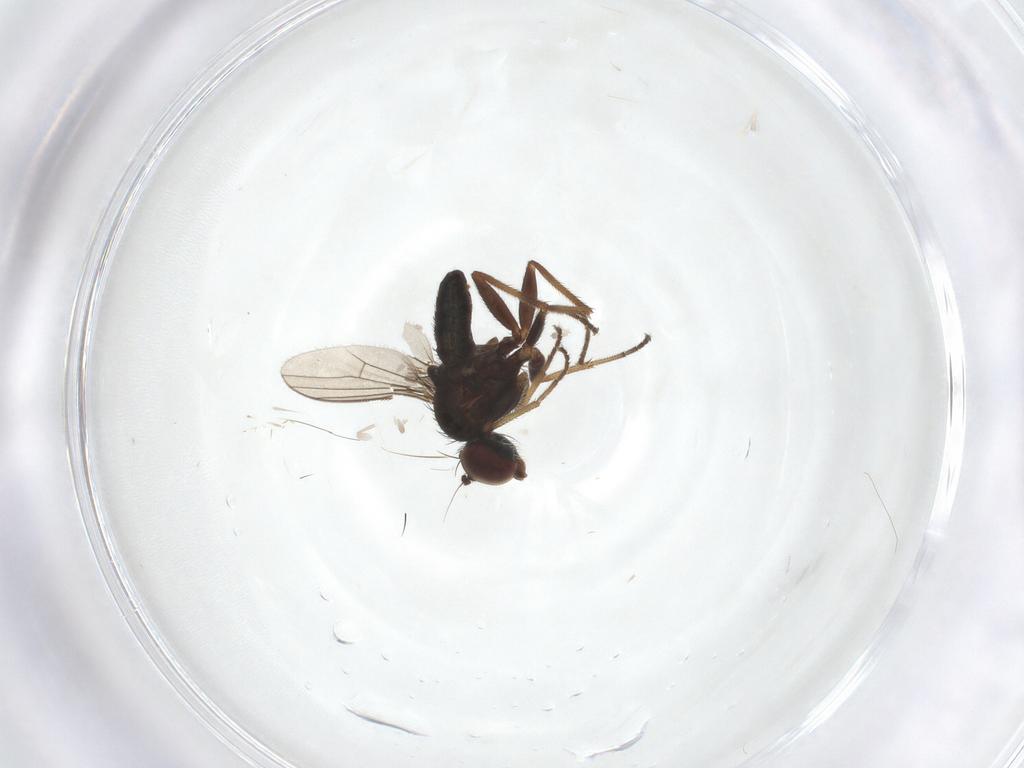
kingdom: Animalia
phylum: Arthropoda
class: Insecta
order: Diptera
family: Dolichopodidae
